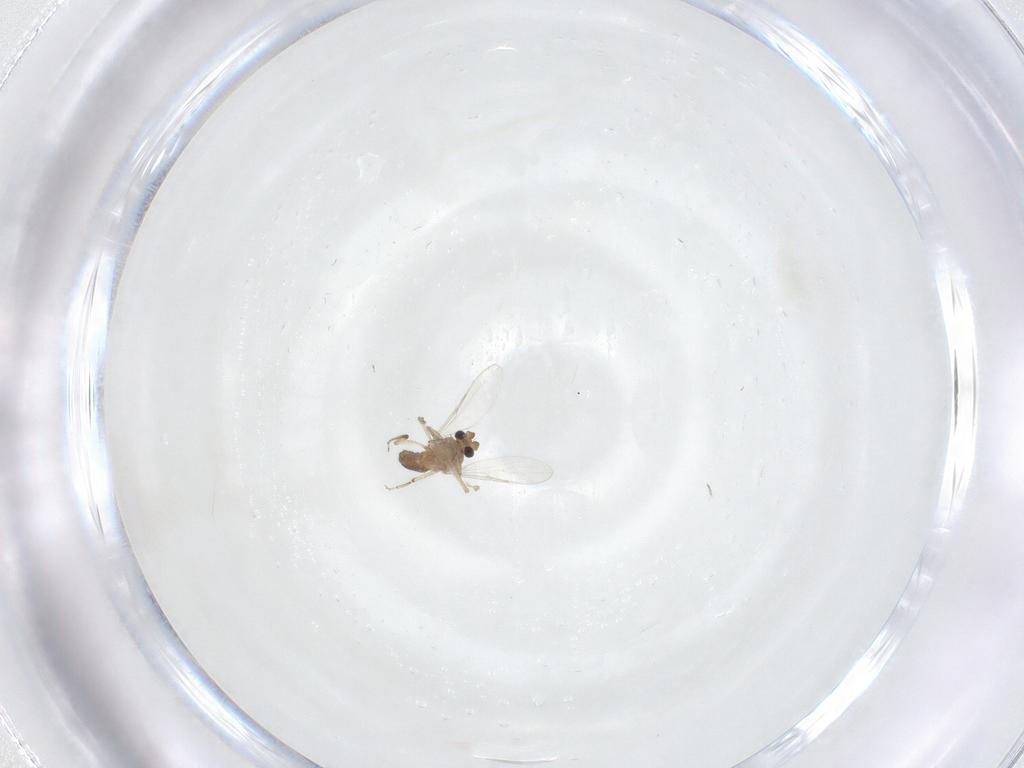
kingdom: Animalia
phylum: Arthropoda
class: Insecta
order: Diptera
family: Ceratopogonidae
